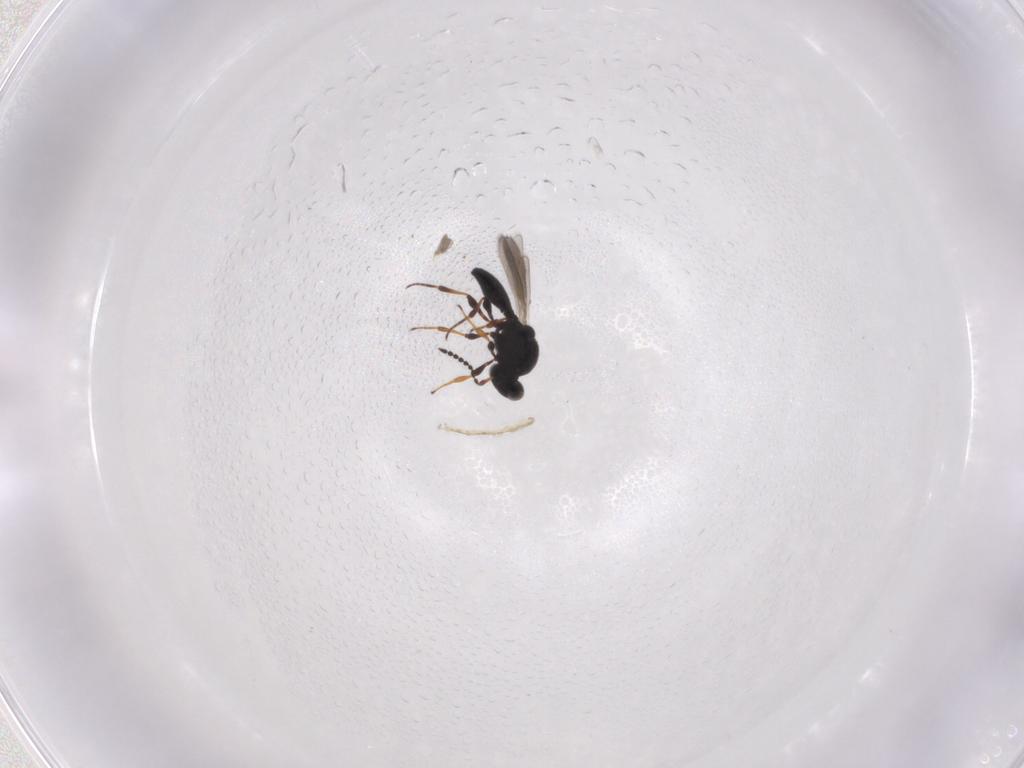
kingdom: Animalia
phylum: Arthropoda
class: Insecta
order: Hymenoptera
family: Platygastridae
